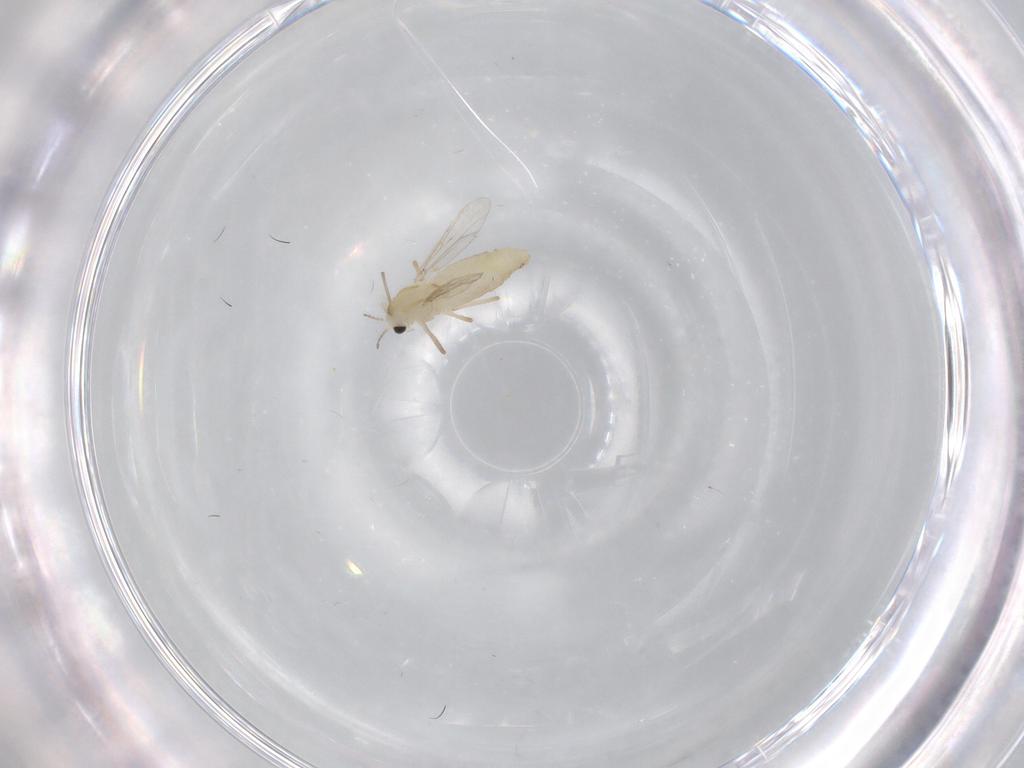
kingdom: Animalia
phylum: Arthropoda
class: Insecta
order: Diptera
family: Chironomidae
